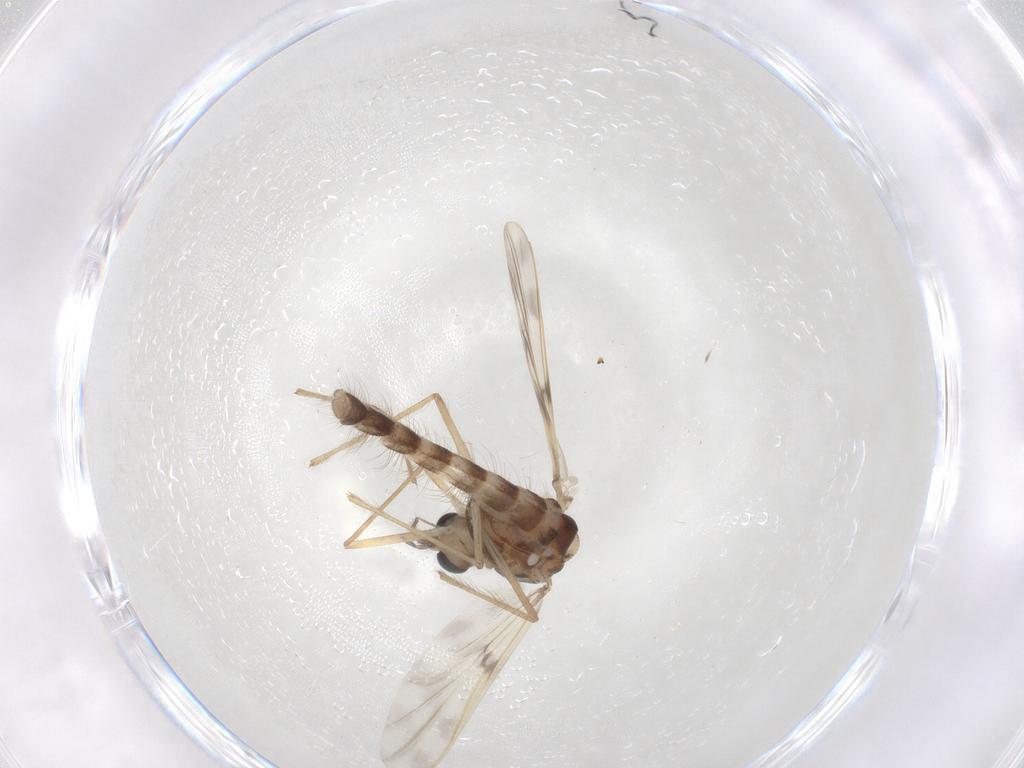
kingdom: Animalia
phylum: Arthropoda
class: Insecta
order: Diptera
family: Chironomidae
